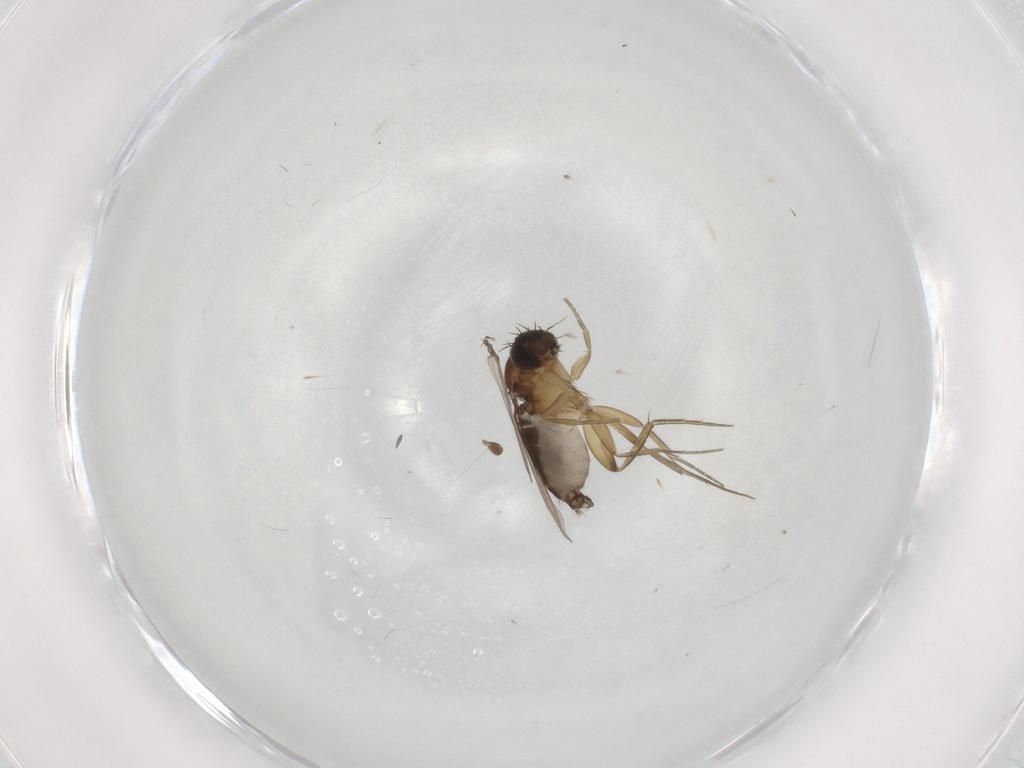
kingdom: Animalia
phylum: Arthropoda
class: Insecta
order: Diptera
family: Phoridae
